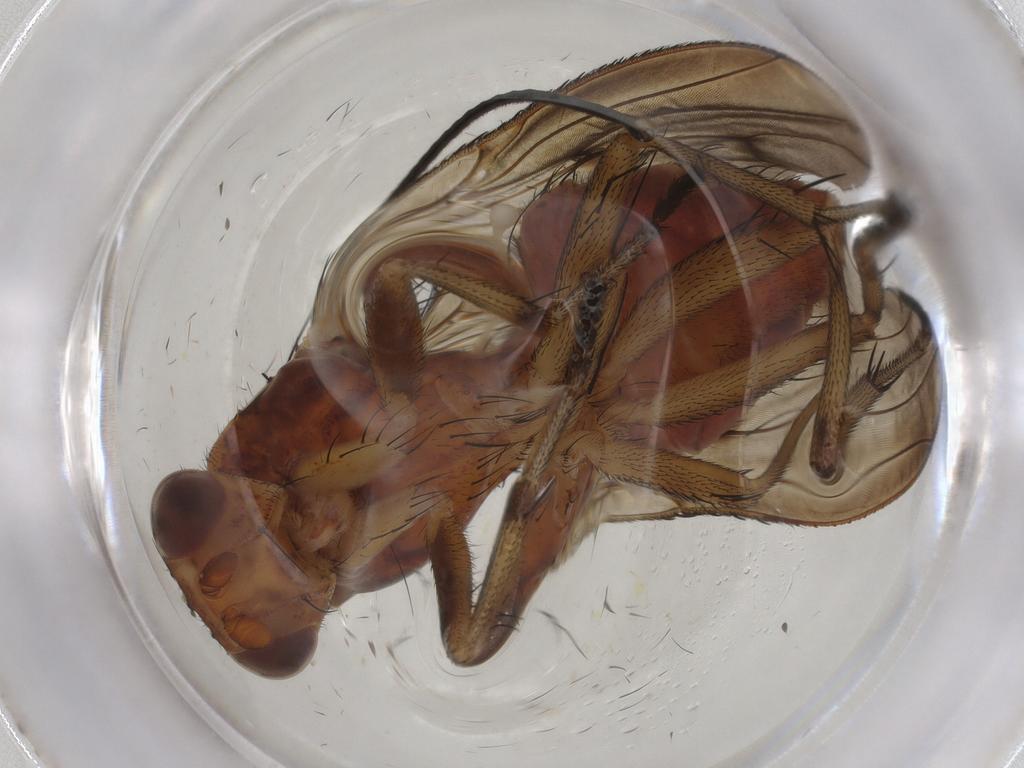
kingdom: Animalia
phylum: Arthropoda
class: Insecta
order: Diptera
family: Heleomyzidae
